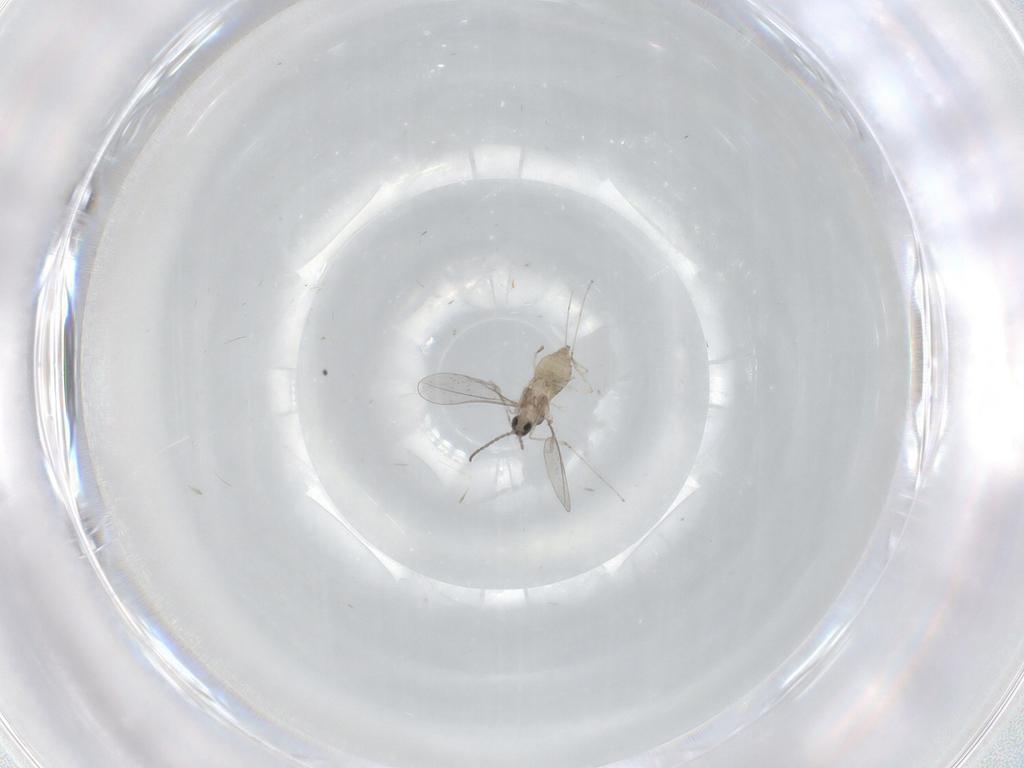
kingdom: Animalia
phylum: Arthropoda
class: Insecta
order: Diptera
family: Cecidomyiidae
